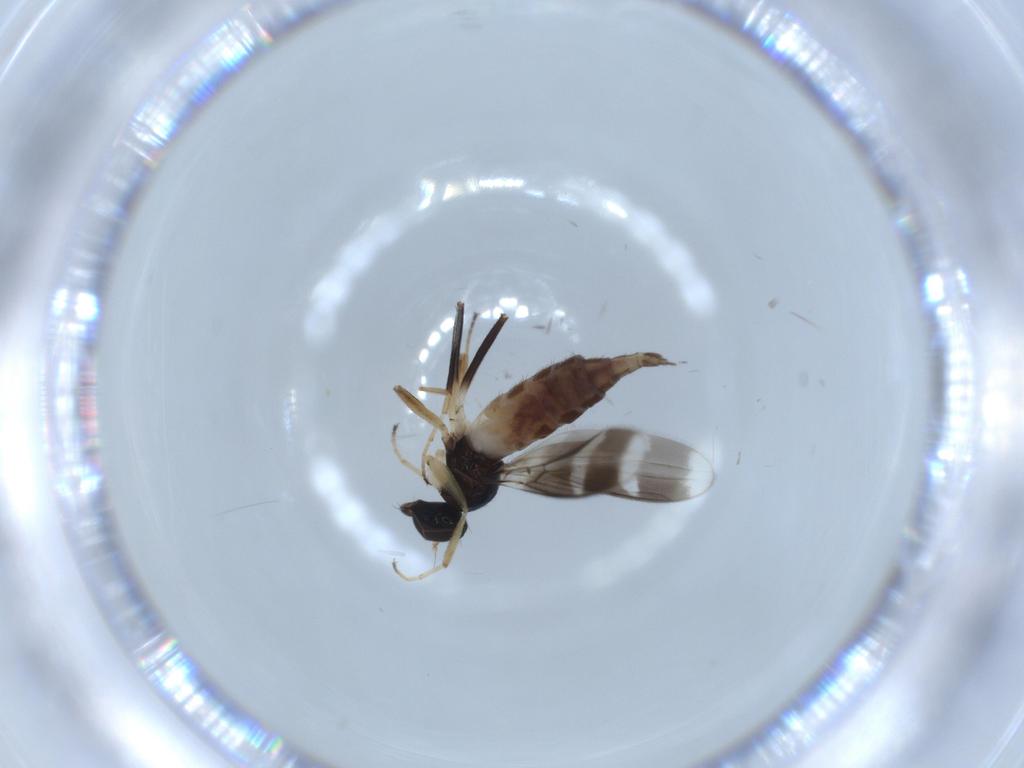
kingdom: Animalia
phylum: Arthropoda
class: Insecta
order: Diptera
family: Hybotidae
